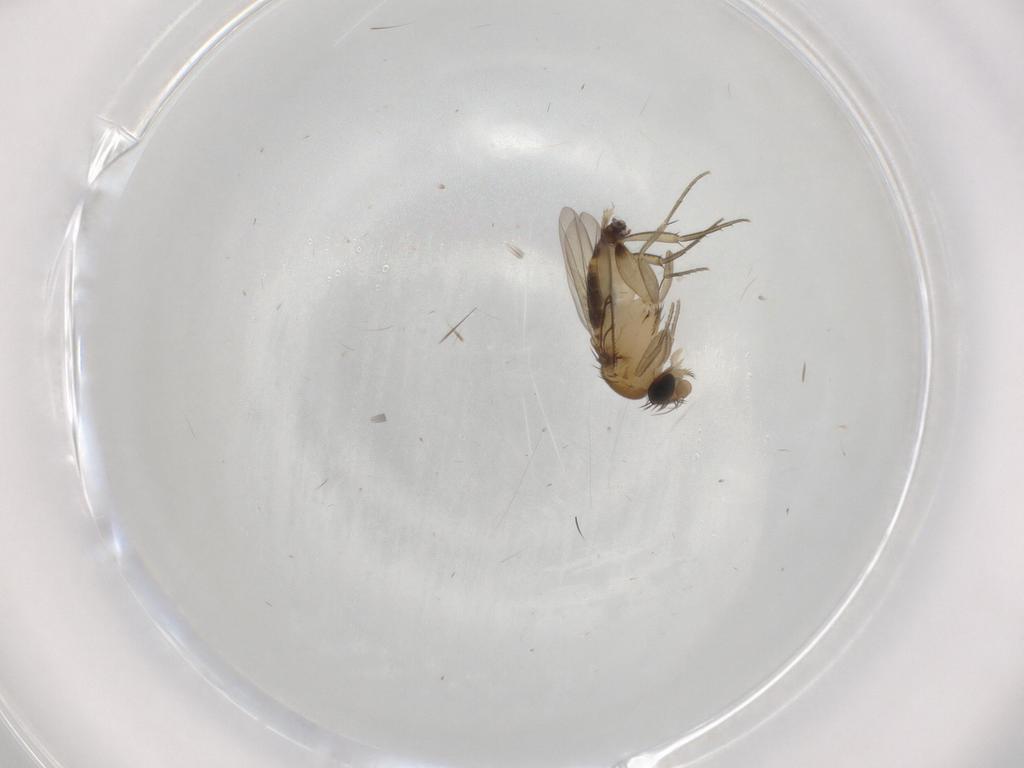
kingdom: Animalia
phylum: Arthropoda
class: Insecta
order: Diptera
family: Phoridae
